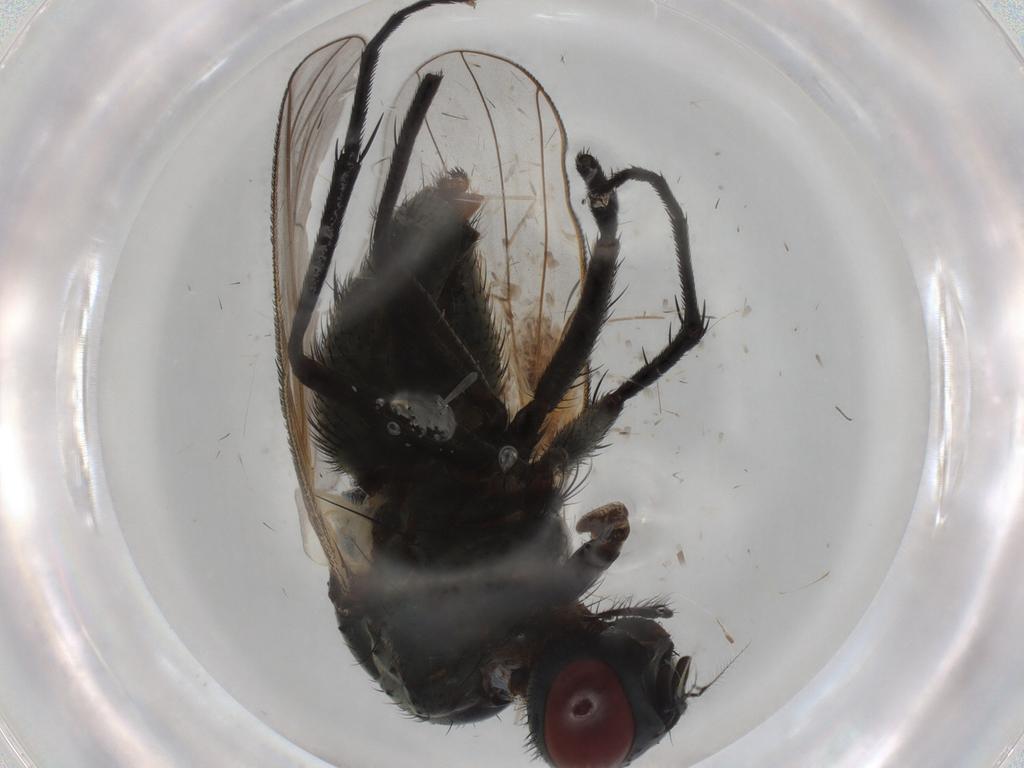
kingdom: Animalia
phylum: Arthropoda
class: Insecta
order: Diptera
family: Muscidae
